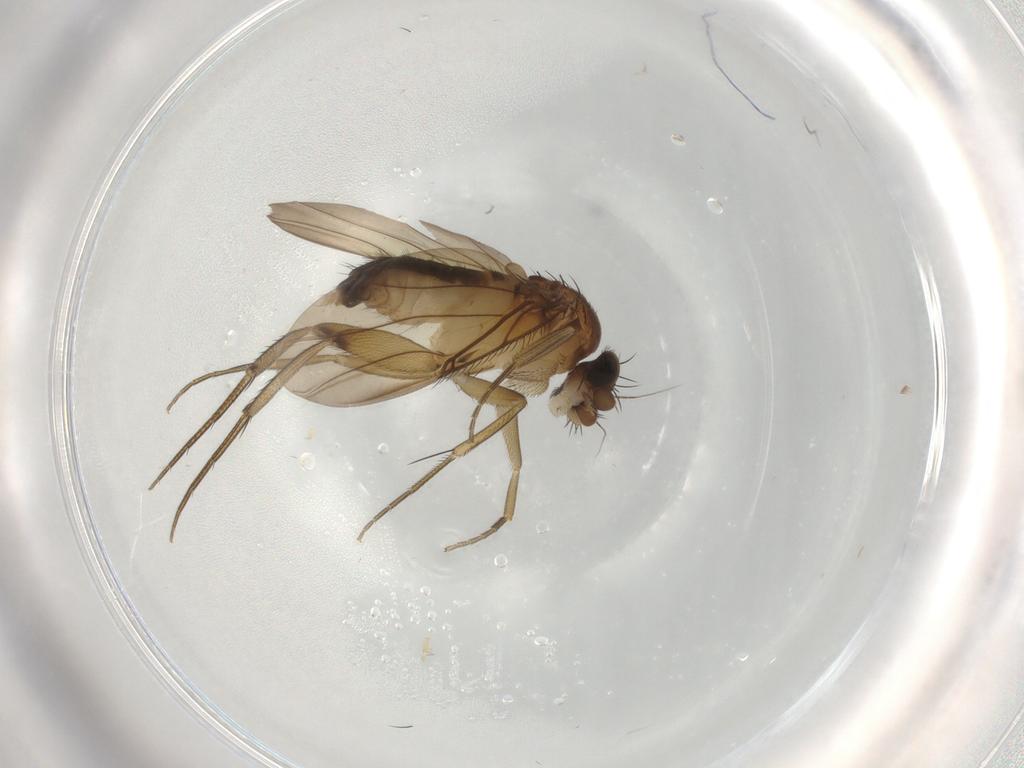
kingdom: Animalia
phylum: Arthropoda
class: Insecta
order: Diptera
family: Phoridae
